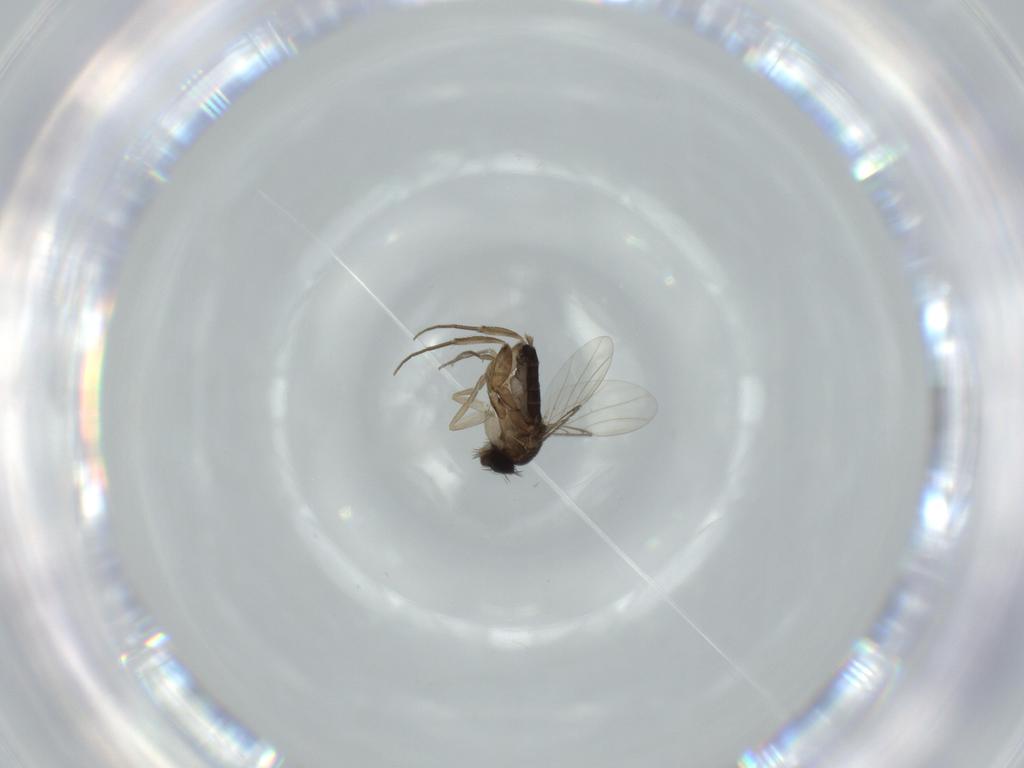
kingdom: Animalia
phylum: Arthropoda
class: Insecta
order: Diptera
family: Phoridae
